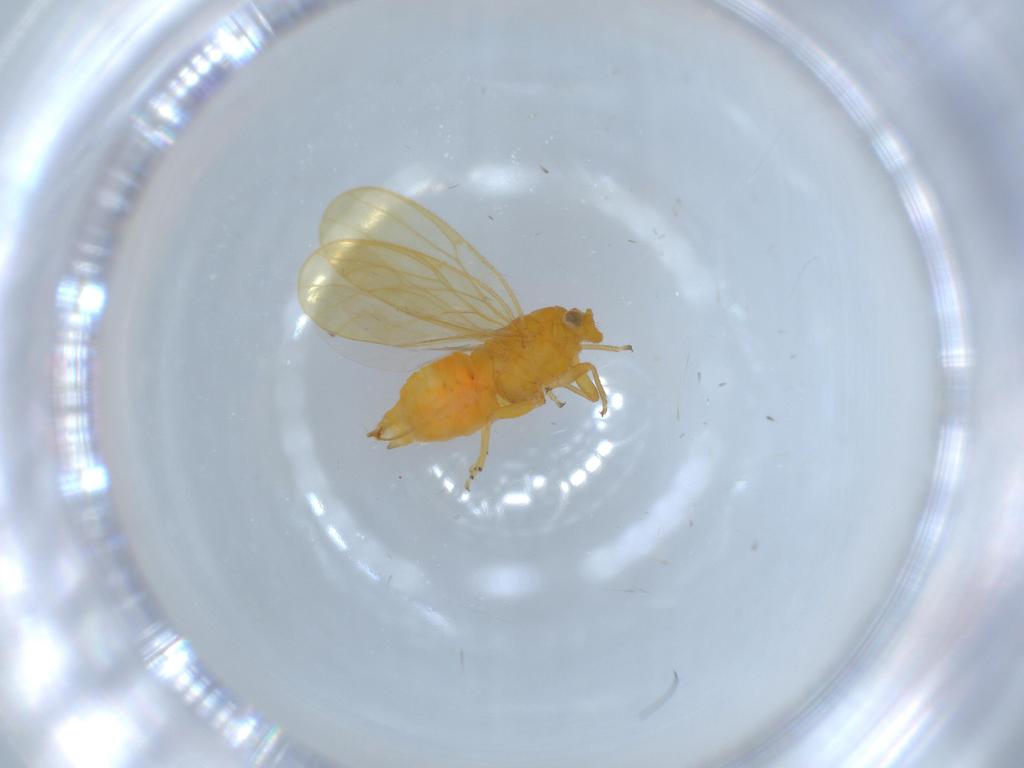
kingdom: Animalia
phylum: Arthropoda
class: Insecta
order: Hemiptera
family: Psyllidae
